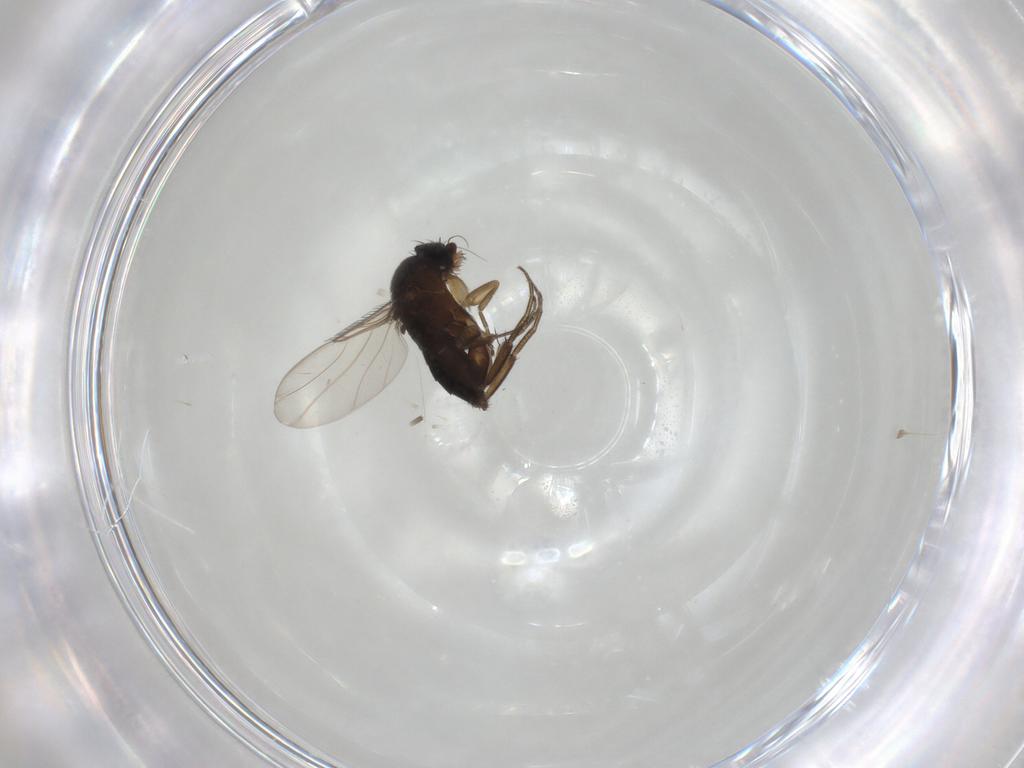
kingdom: Animalia
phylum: Arthropoda
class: Insecta
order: Diptera
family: Phoridae
